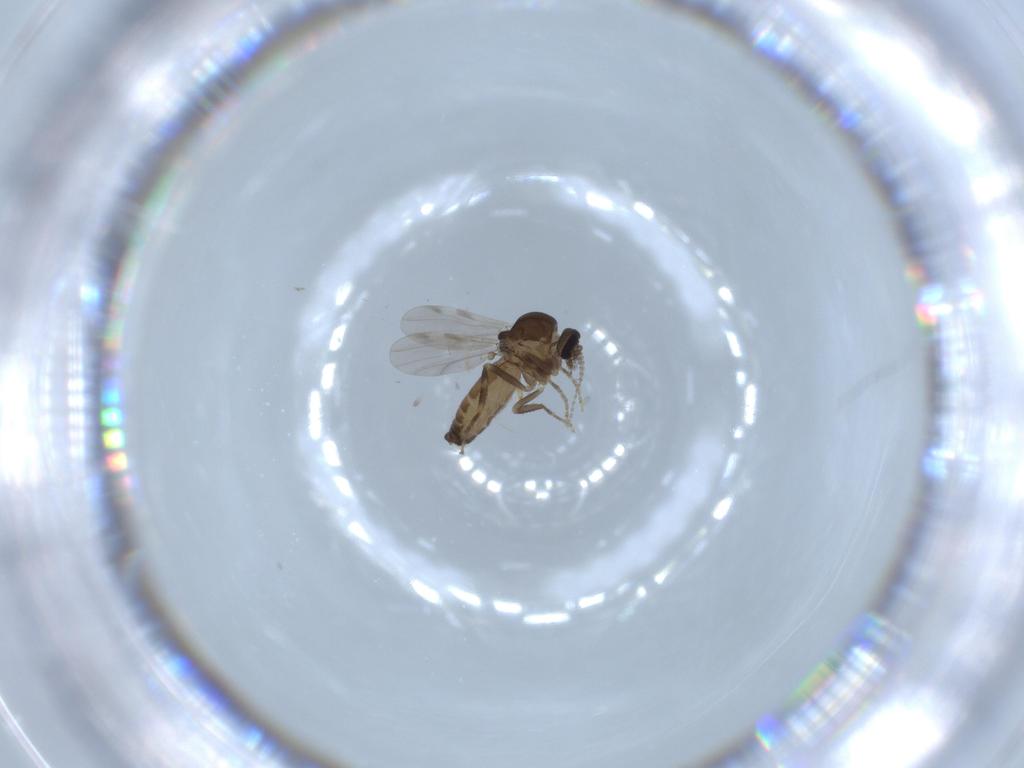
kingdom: Animalia
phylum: Arthropoda
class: Insecta
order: Diptera
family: Ceratopogonidae
